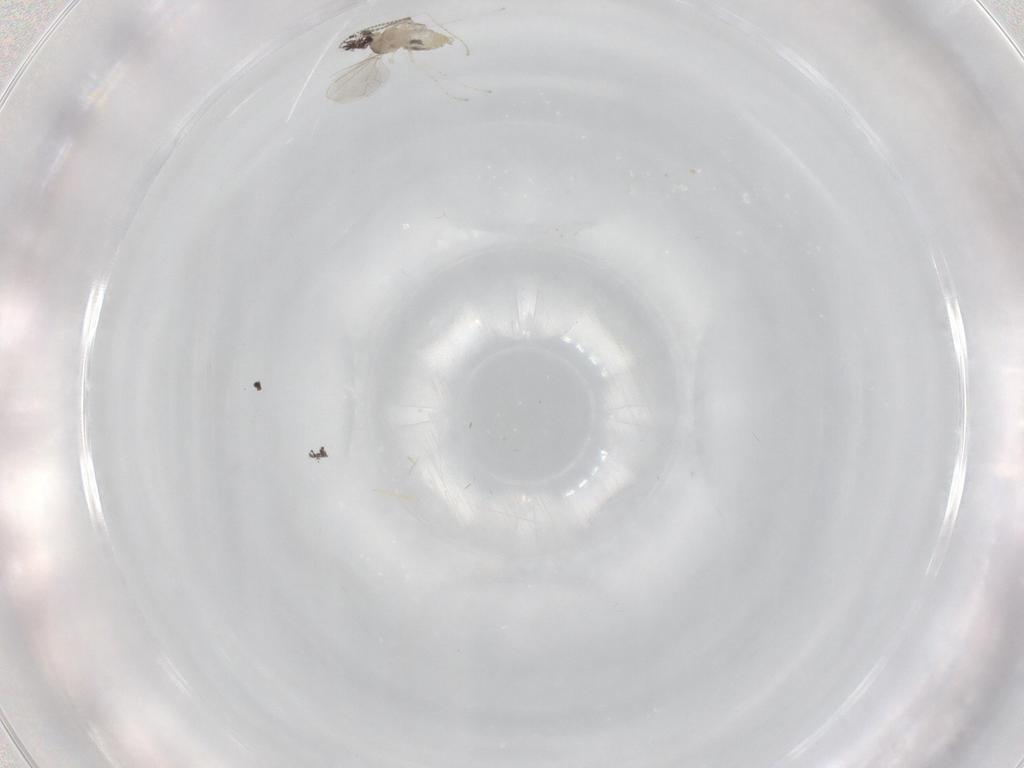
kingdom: Animalia
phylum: Arthropoda
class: Insecta
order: Diptera
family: Cecidomyiidae
